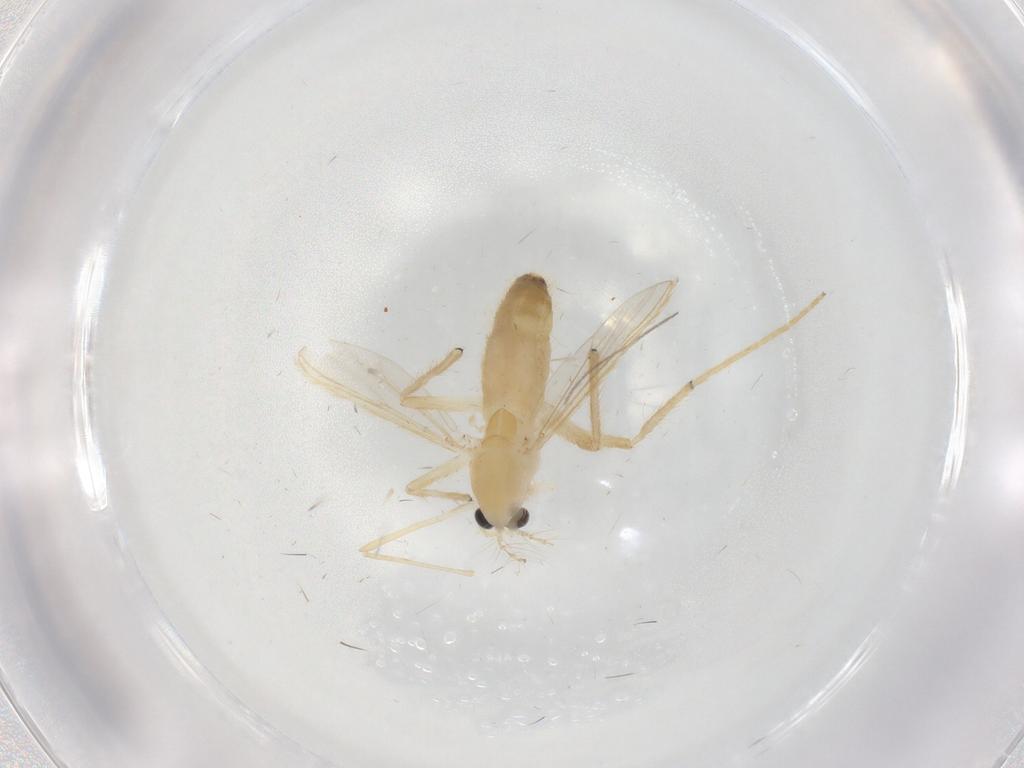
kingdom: Animalia
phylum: Arthropoda
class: Insecta
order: Diptera
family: Chironomidae
